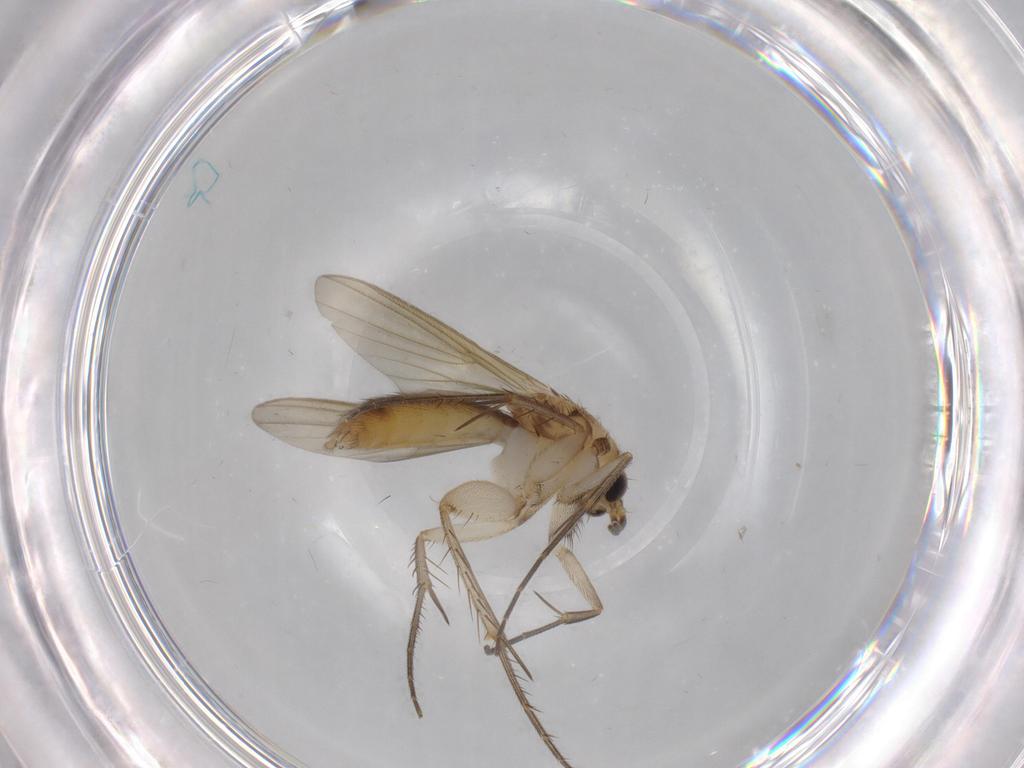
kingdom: Animalia
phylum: Arthropoda
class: Insecta
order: Diptera
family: Mycetophilidae
